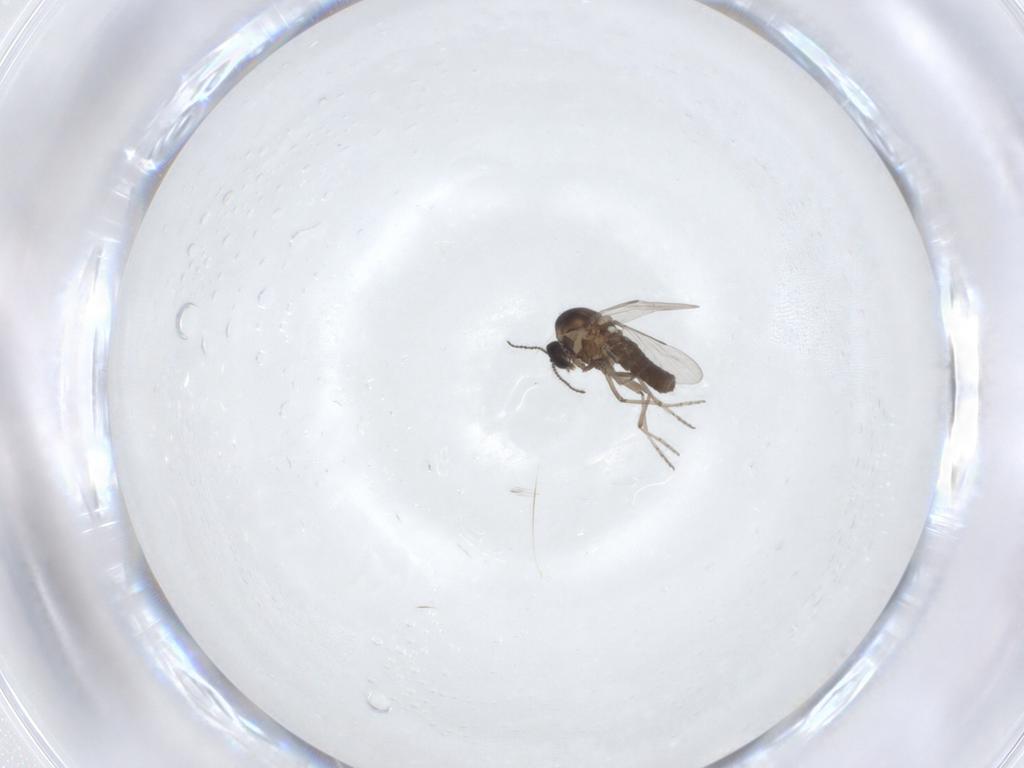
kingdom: Animalia
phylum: Arthropoda
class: Insecta
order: Diptera
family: Ceratopogonidae
